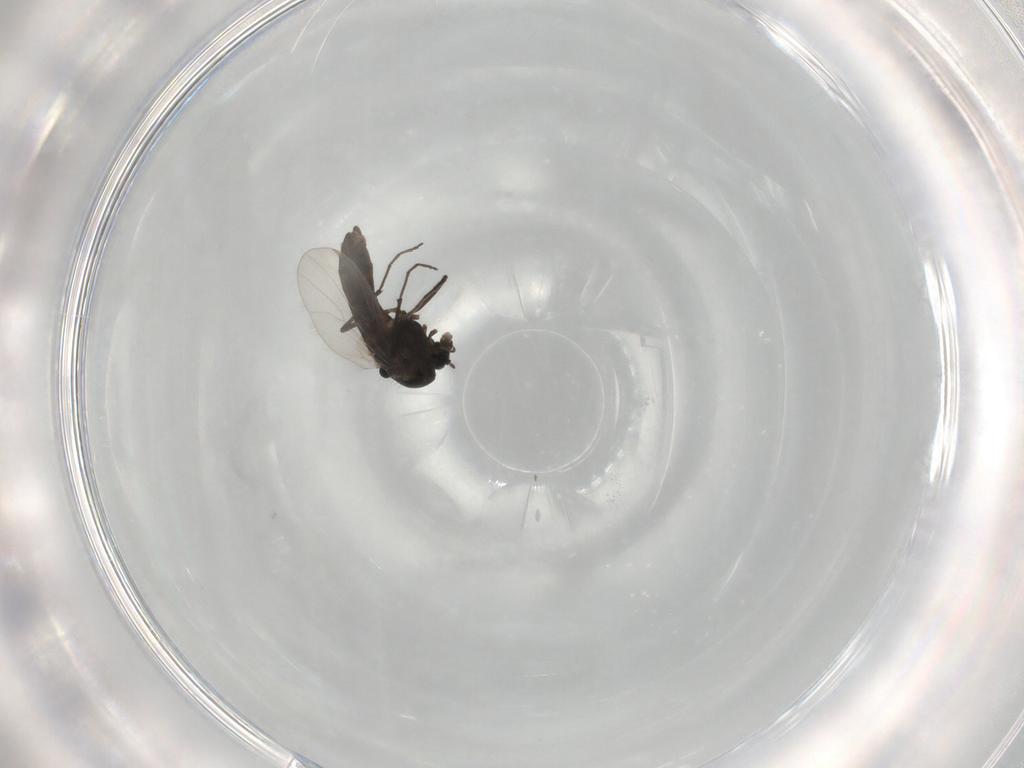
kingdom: Animalia
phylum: Arthropoda
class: Insecta
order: Diptera
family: Chironomidae
